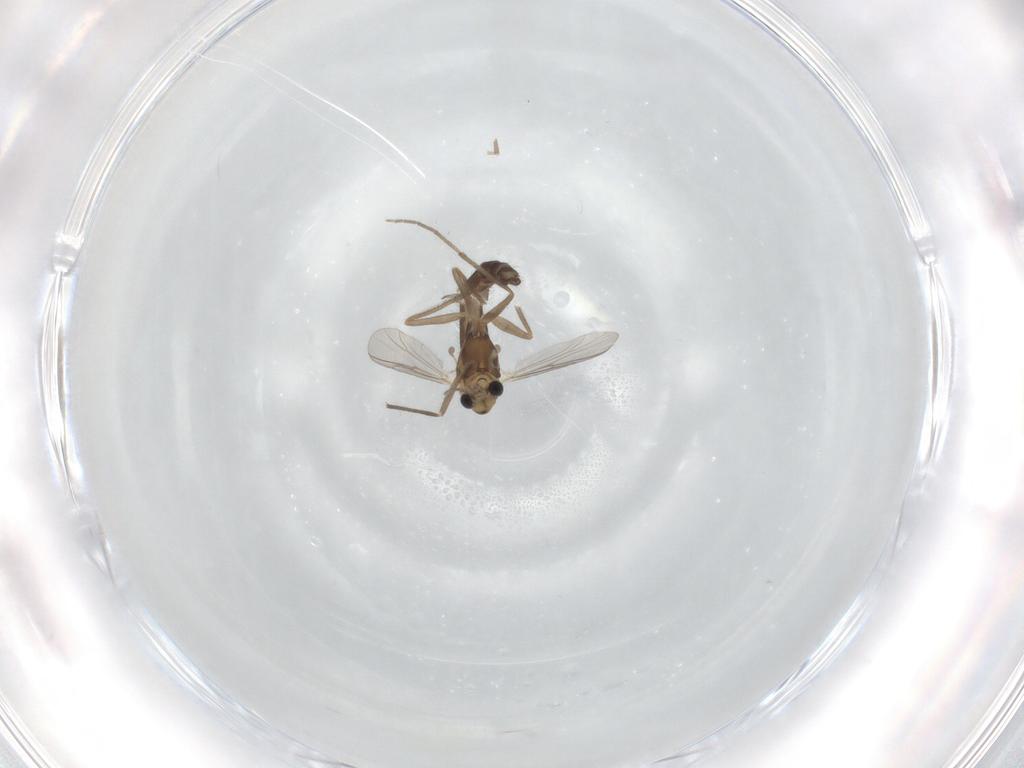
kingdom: Animalia
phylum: Arthropoda
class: Insecta
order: Diptera
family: Chironomidae
